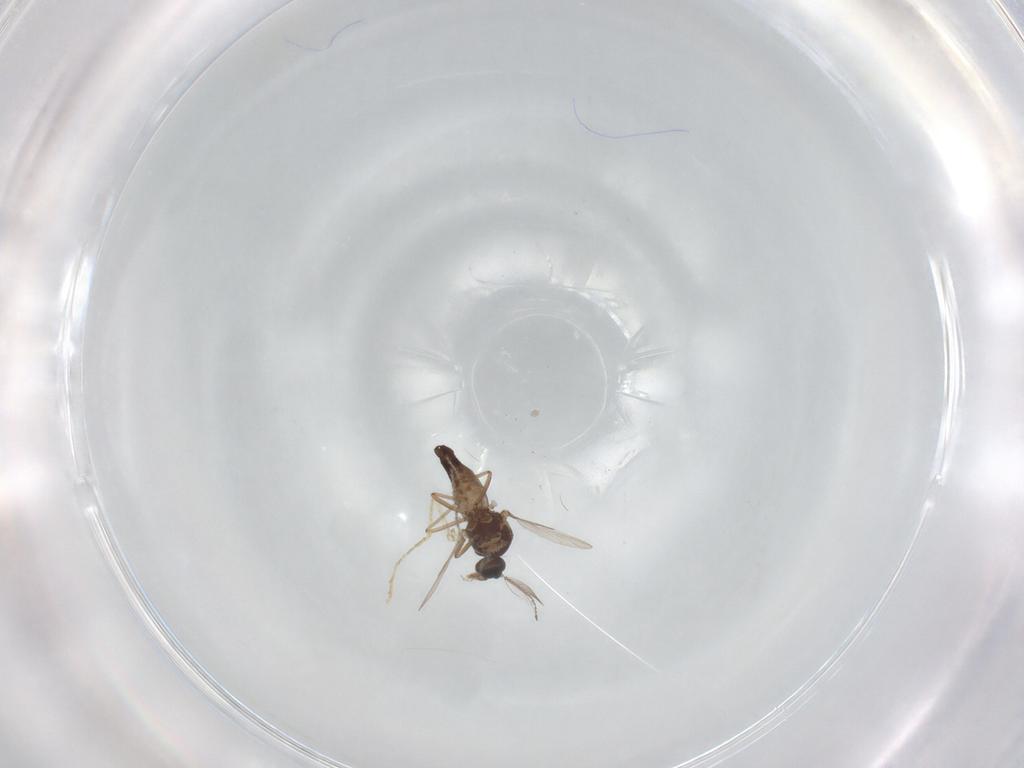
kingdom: Animalia
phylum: Arthropoda
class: Insecta
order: Diptera
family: Ceratopogonidae
